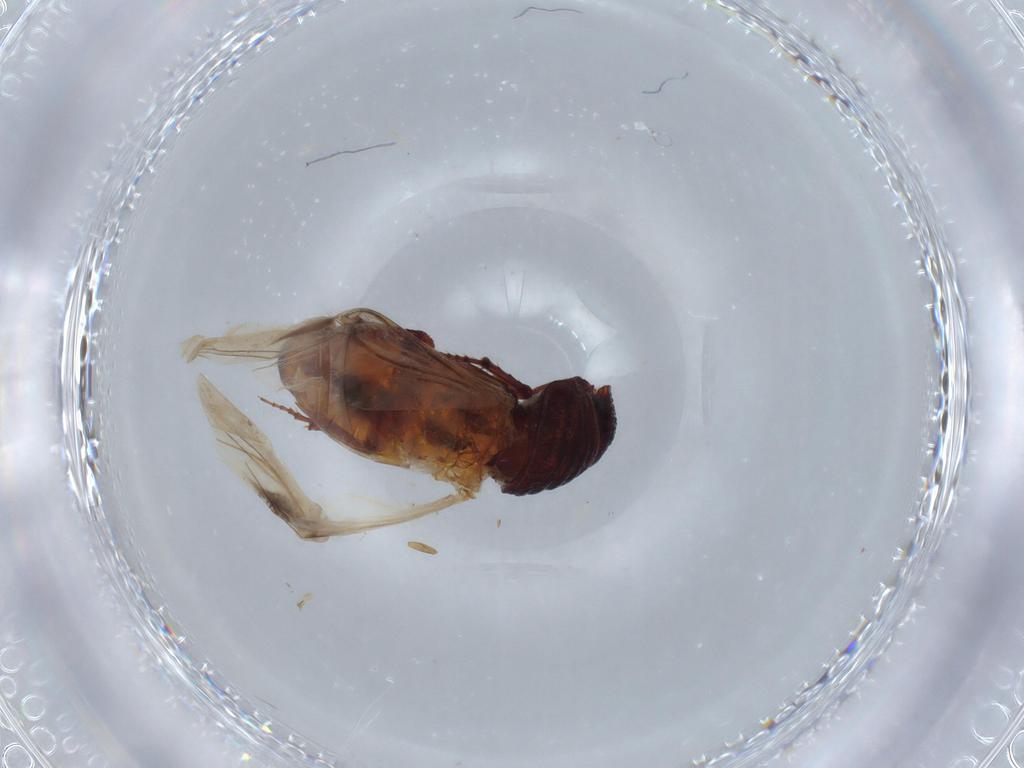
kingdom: Animalia
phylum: Arthropoda
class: Insecta
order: Coleoptera
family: Scarabaeidae
